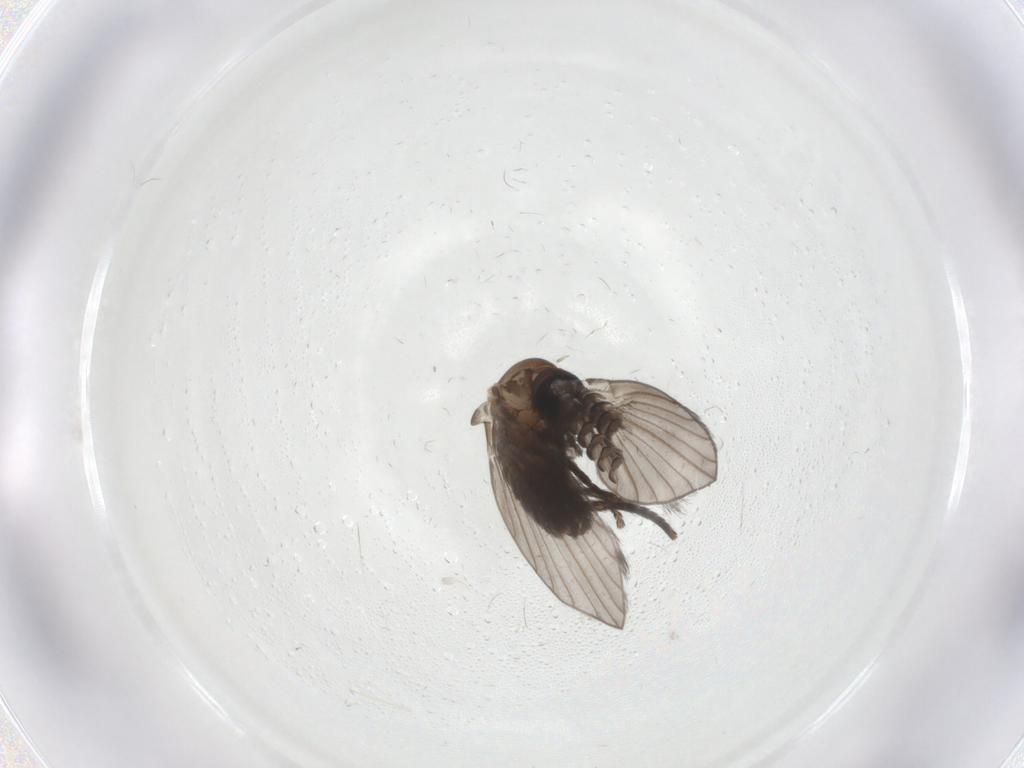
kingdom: Animalia
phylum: Arthropoda
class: Insecta
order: Diptera
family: Psychodidae
